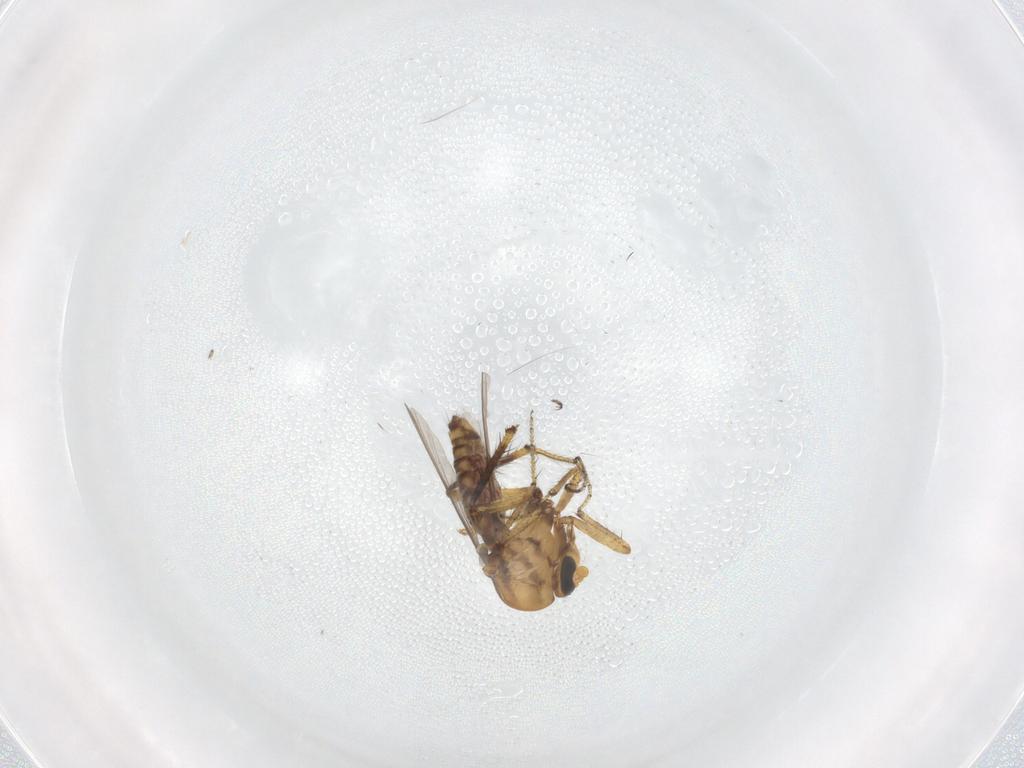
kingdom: Animalia
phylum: Arthropoda
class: Insecta
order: Diptera
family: Ceratopogonidae
